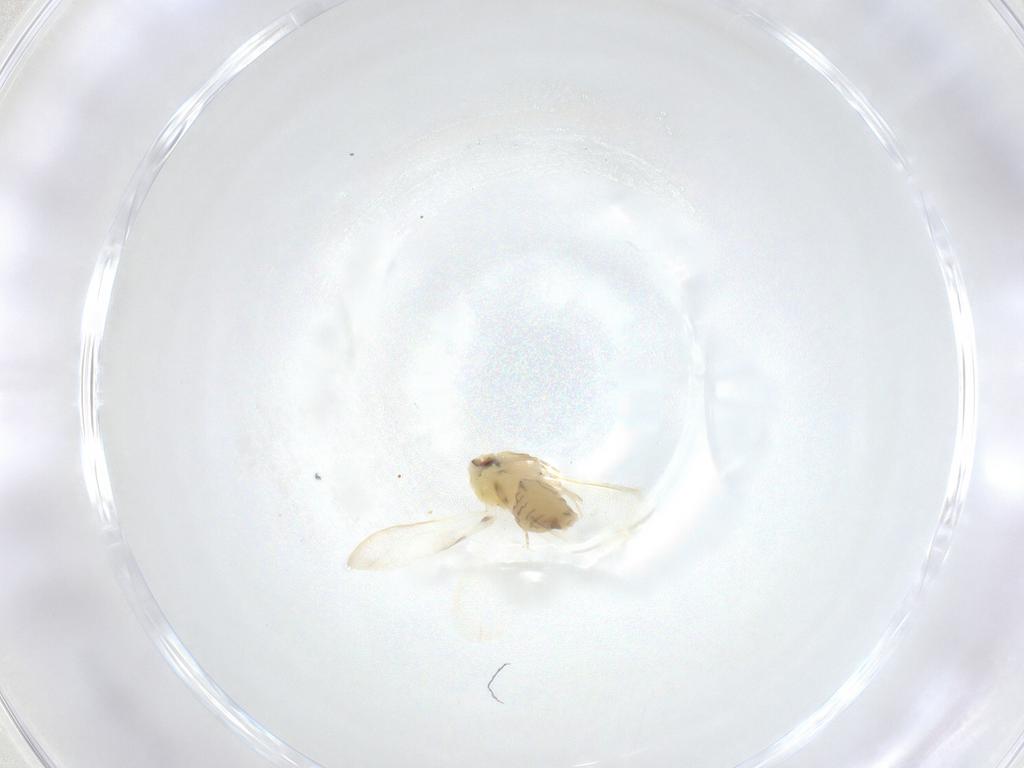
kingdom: Animalia
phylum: Arthropoda
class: Insecta
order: Hemiptera
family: Aleyrodidae
